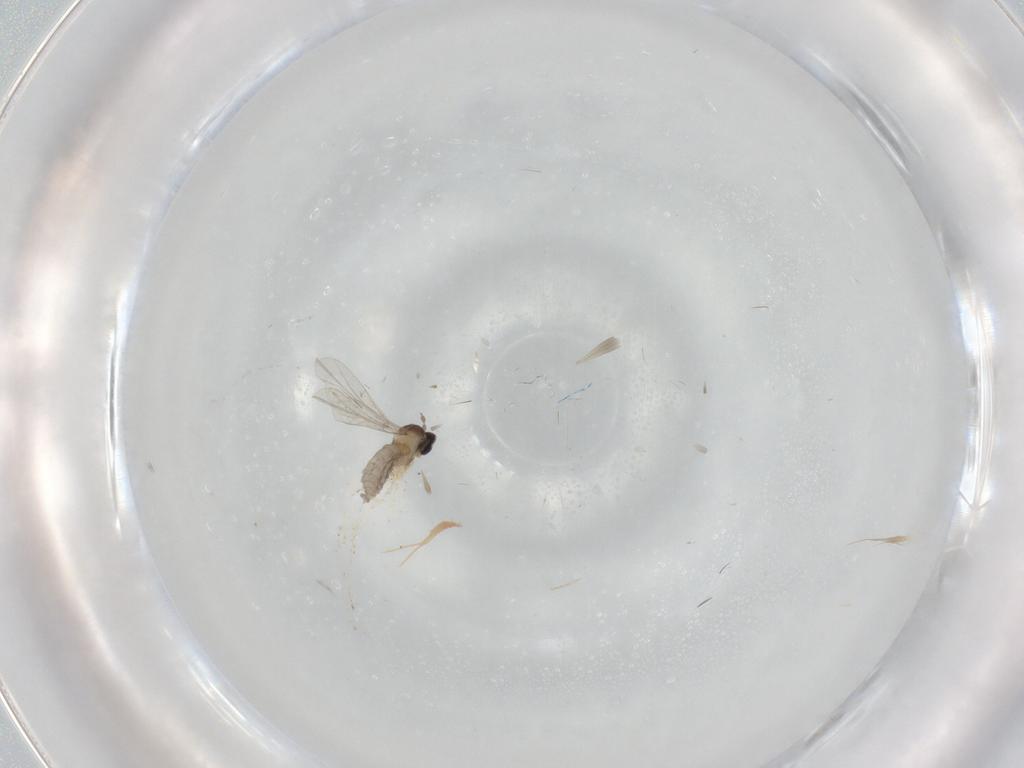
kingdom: Animalia
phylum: Arthropoda
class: Insecta
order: Diptera
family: Cecidomyiidae
